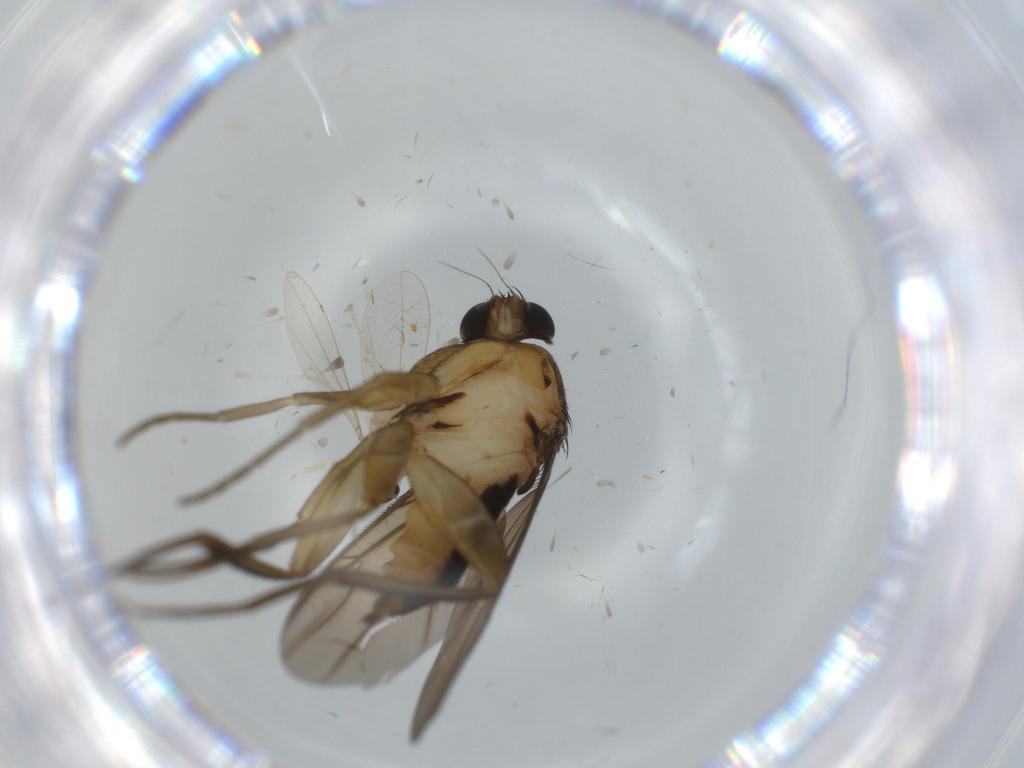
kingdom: Animalia
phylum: Arthropoda
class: Insecta
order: Diptera
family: Phoridae
